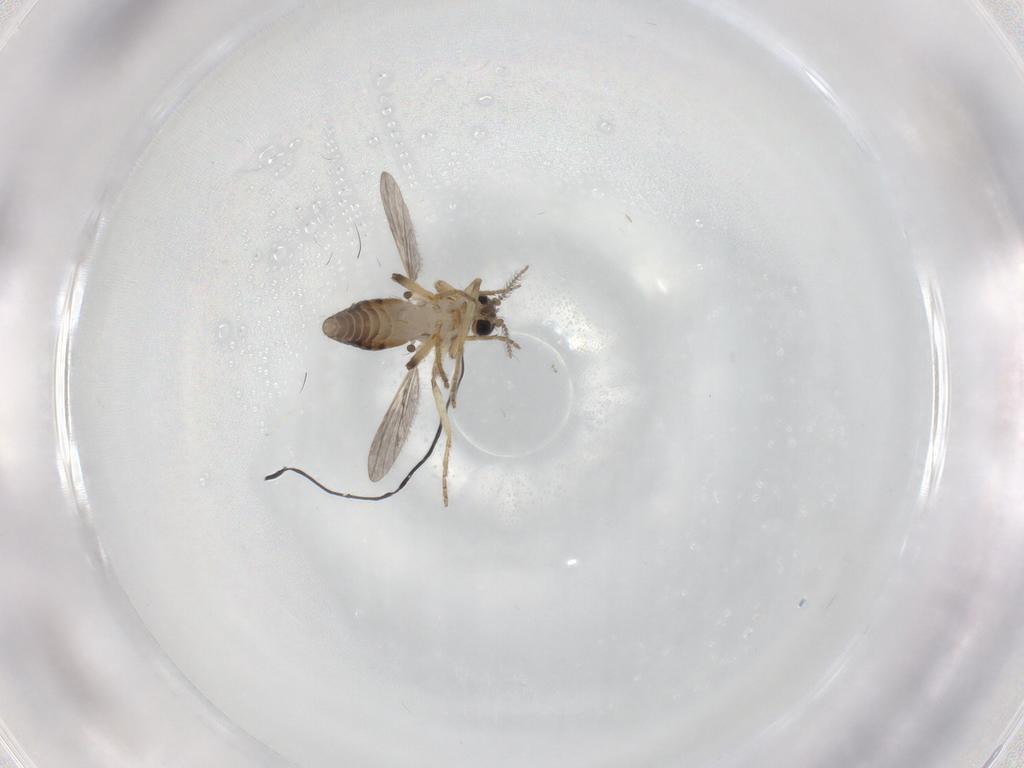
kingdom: Animalia
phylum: Arthropoda
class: Insecta
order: Diptera
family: Ceratopogonidae
